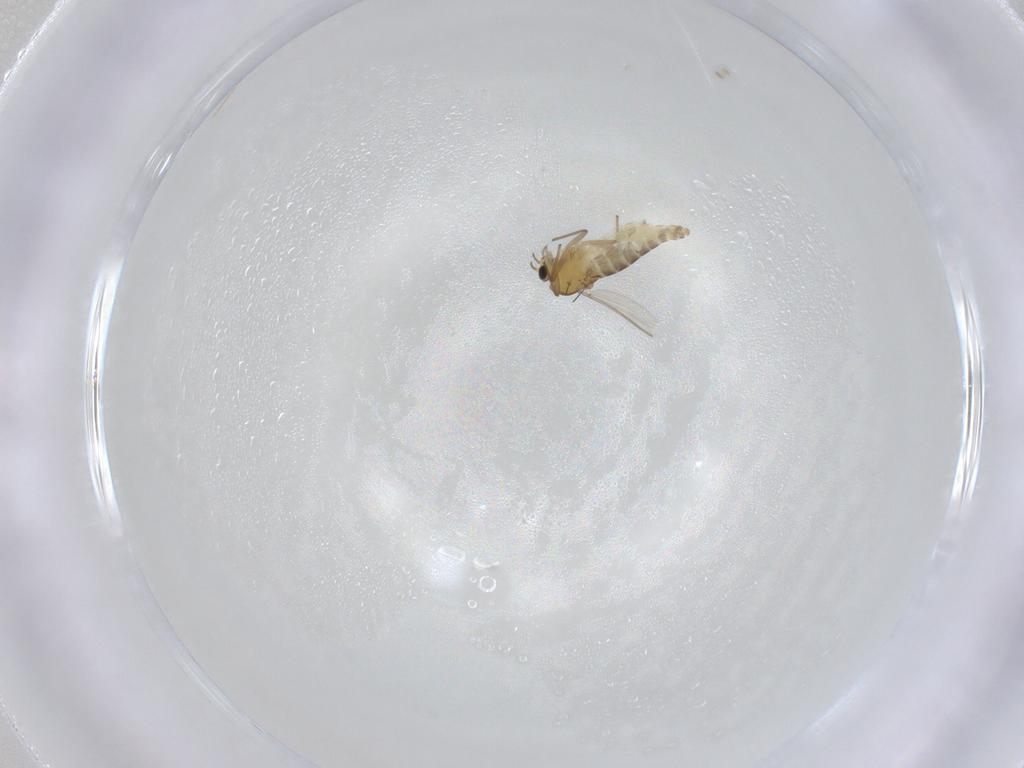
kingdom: Animalia
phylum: Arthropoda
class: Insecta
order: Diptera
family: Chironomidae
